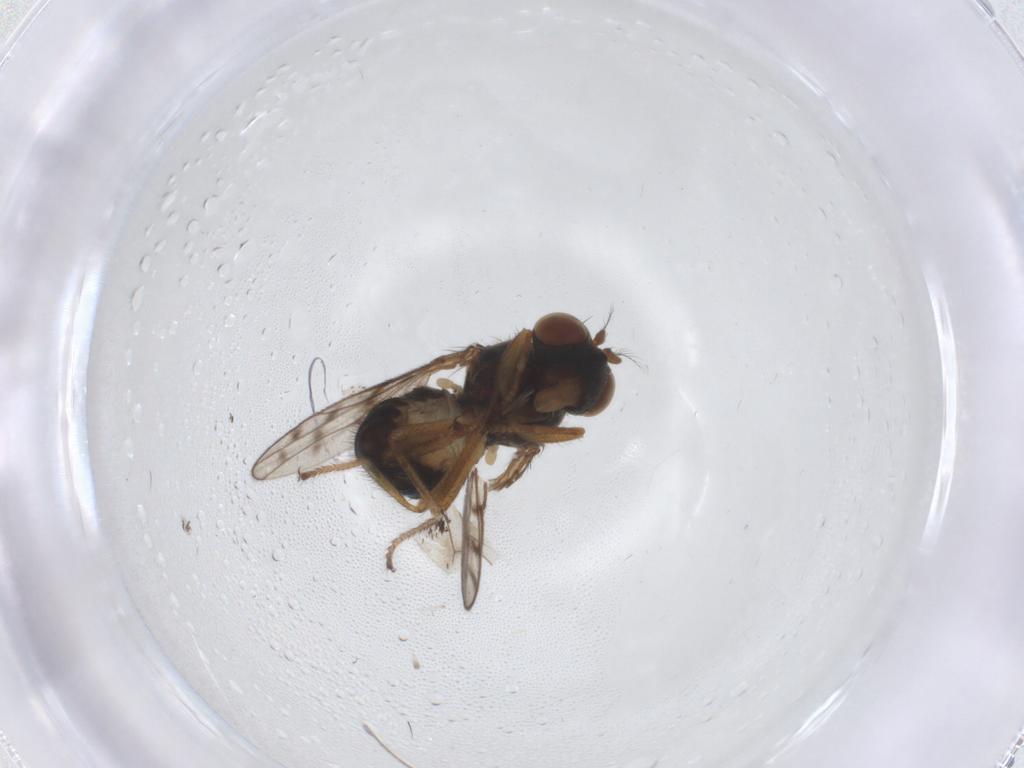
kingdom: Animalia
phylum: Arthropoda
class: Insecta
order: Diptera
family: Ephydridae
